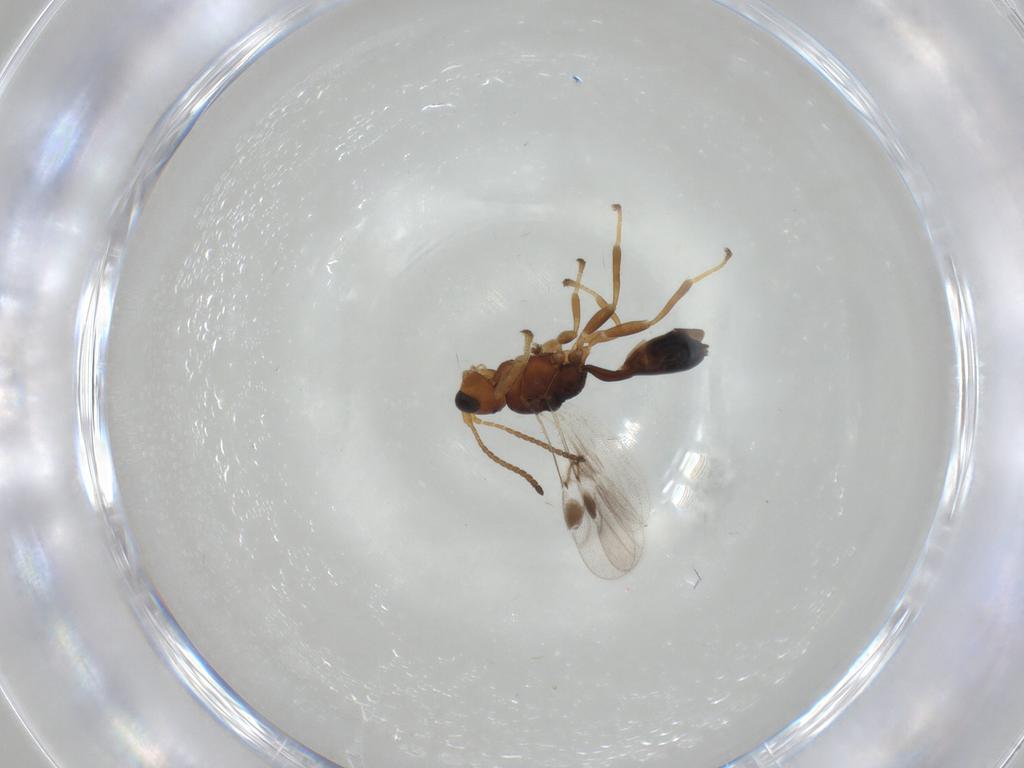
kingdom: Animalia
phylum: Arthropoda
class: Insecta
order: Hymenoptera
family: Braconidae
